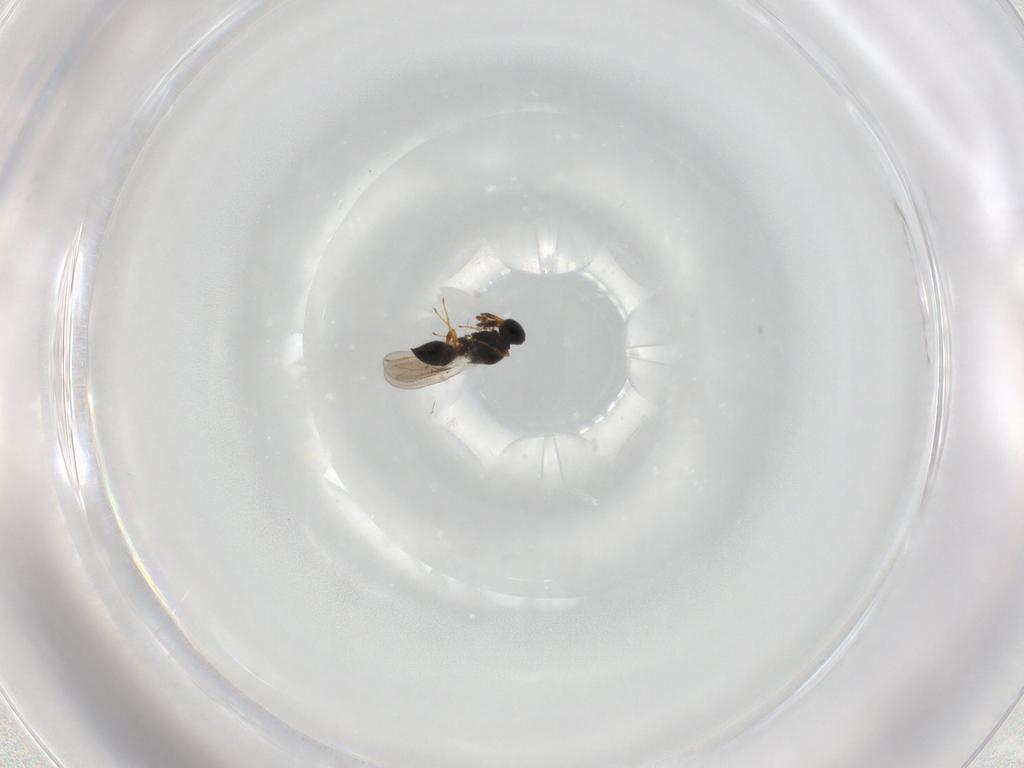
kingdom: Animalia
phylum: Arthropoda
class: Insecta
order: Hymenoptera
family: Platygastridae
